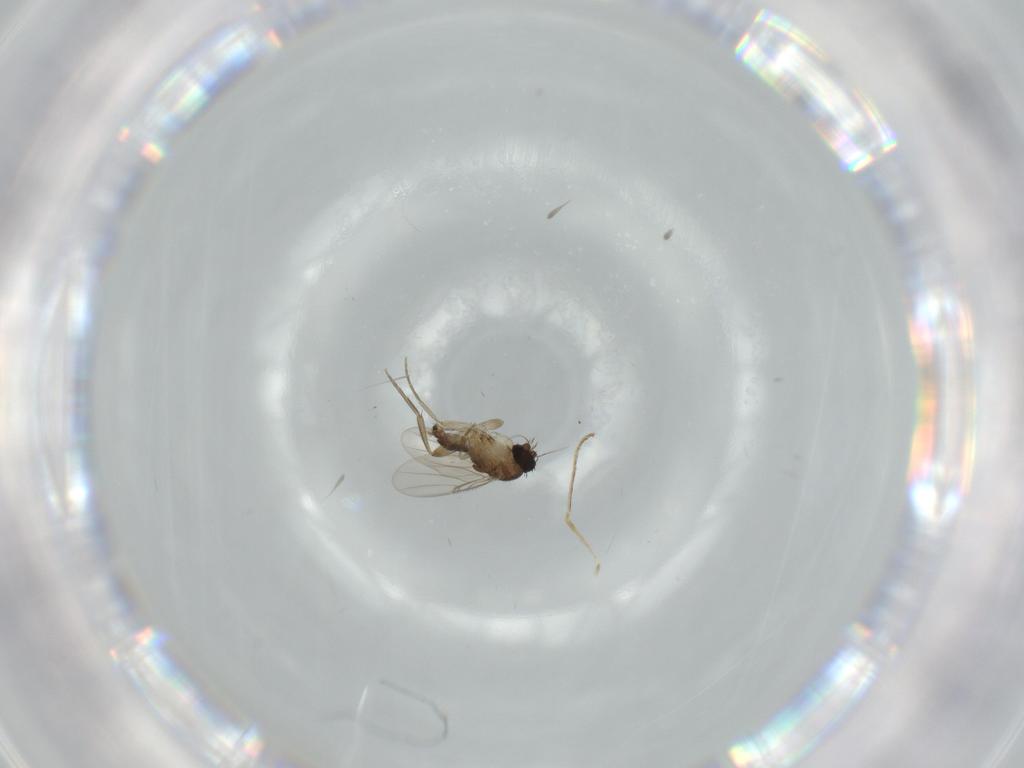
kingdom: Animalia
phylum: Arthropoda
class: Insecta
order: Diptera
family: Phoridae
